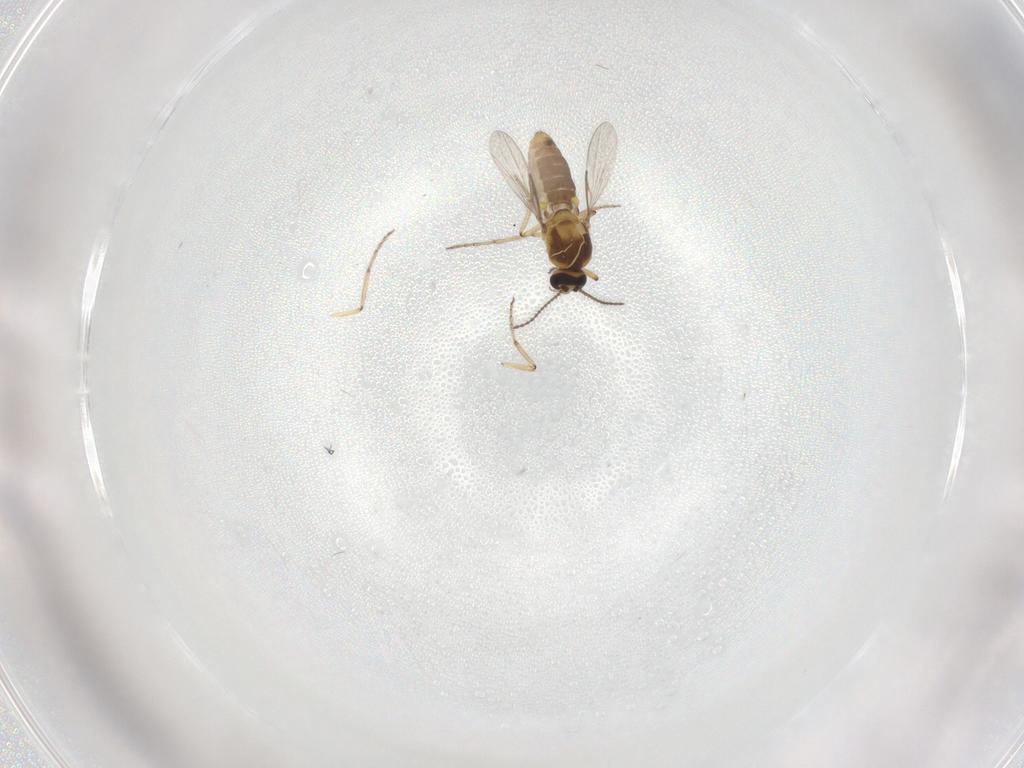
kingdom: Animalia
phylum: Arthropoda
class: Insecta
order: Diptera
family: Ceratopogonidae
